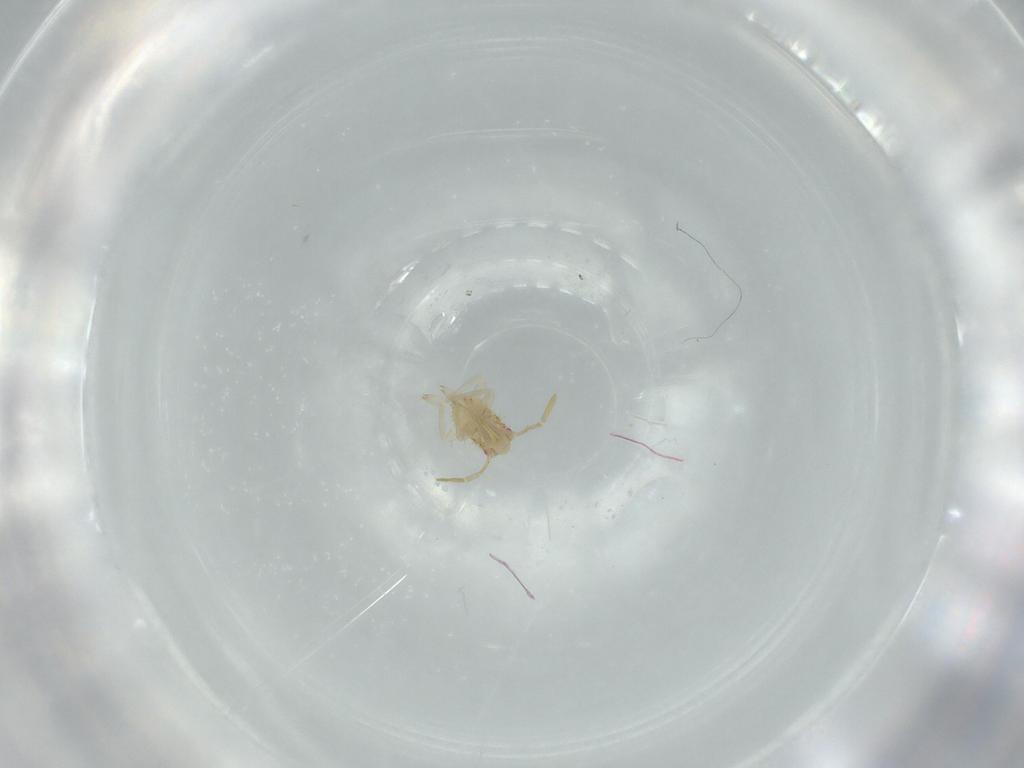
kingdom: Animalia
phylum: Arthropoda
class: Insecta
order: Hemiptera
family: Miridae
